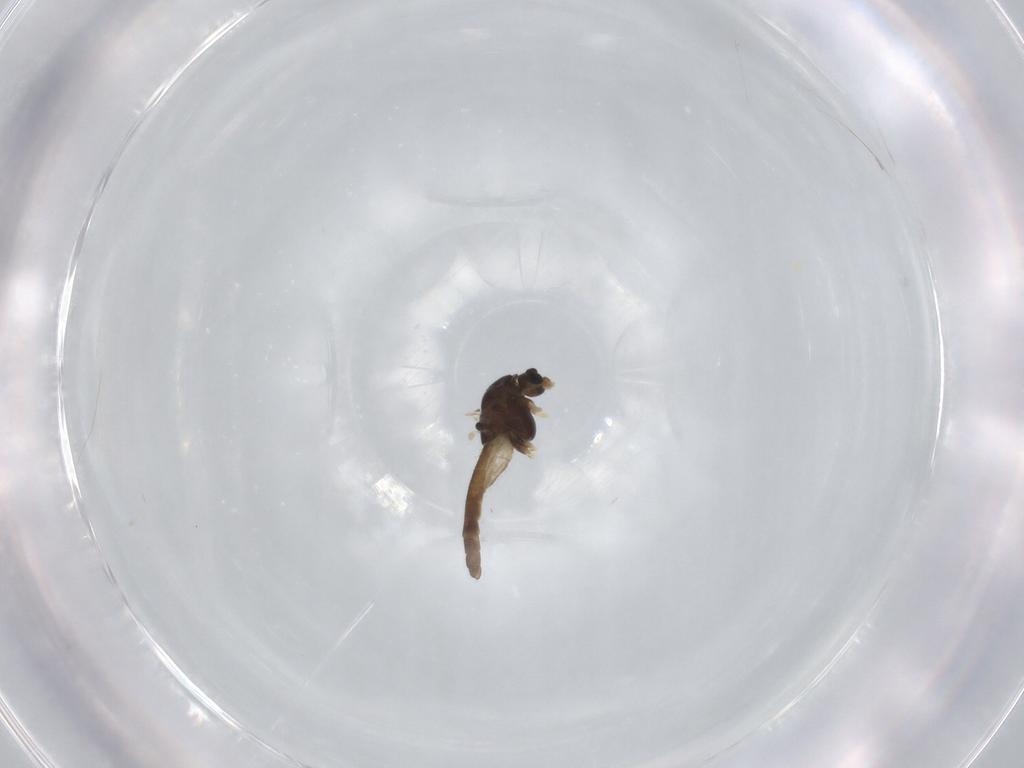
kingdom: Animalia
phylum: Arthropoda
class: Insecta
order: Diptera
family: Chironomidae
